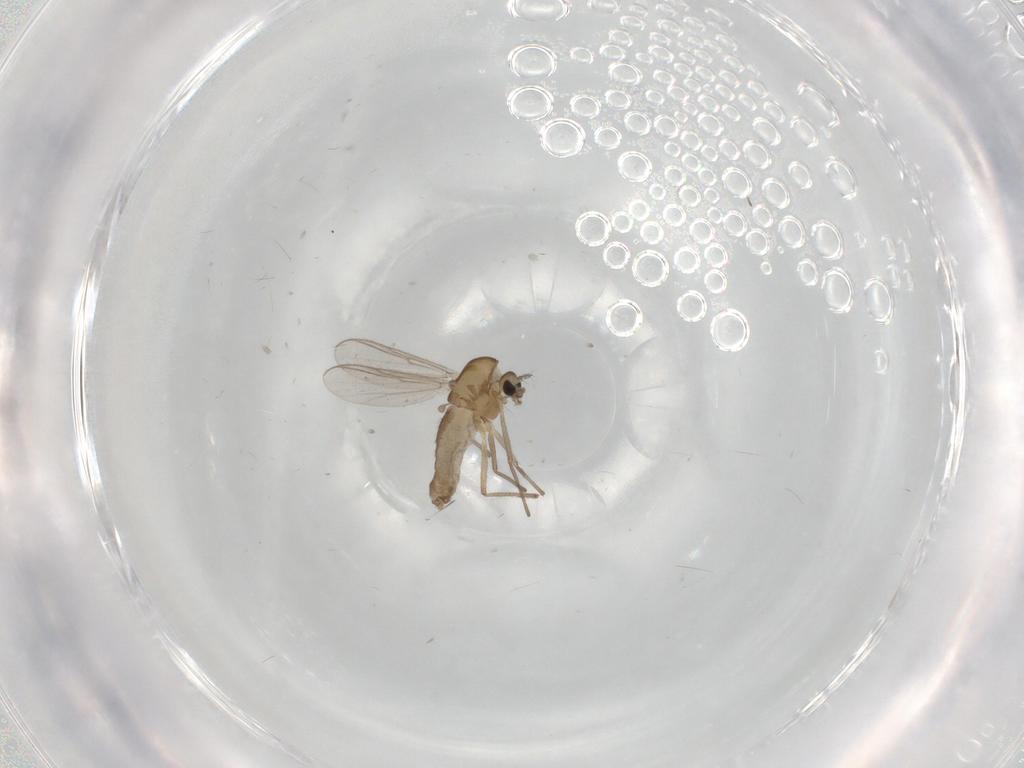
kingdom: Animalia
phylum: Arthropoda
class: Insecta
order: Diptera
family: Chironomidae
